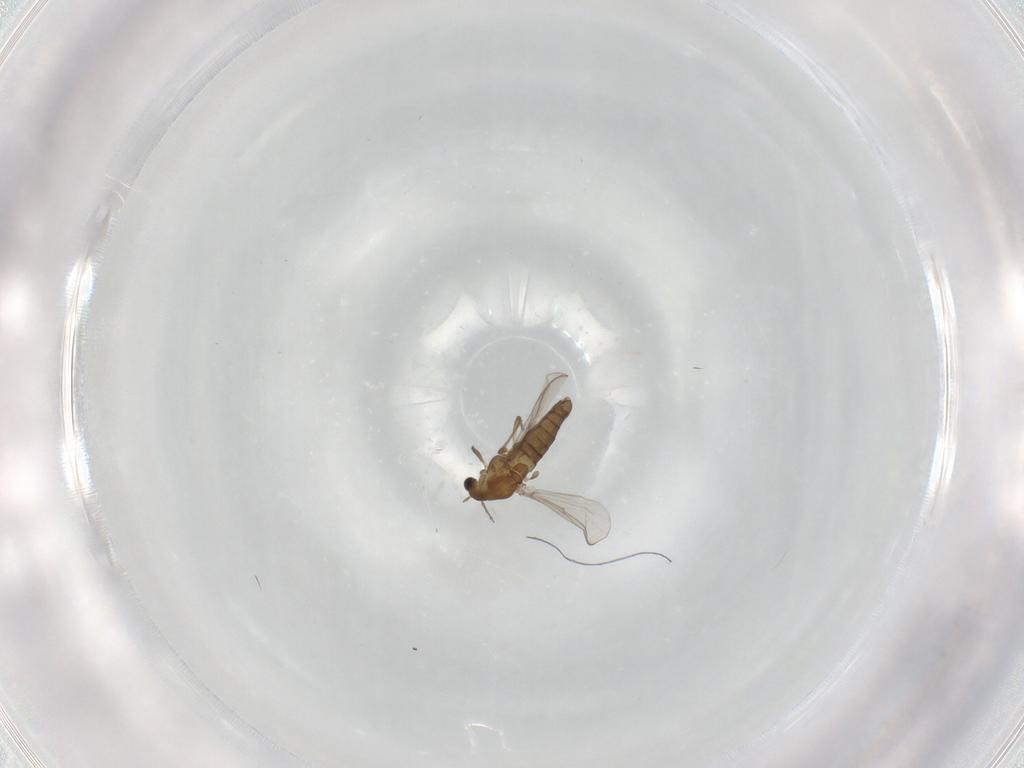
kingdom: Animalia
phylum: Arthropoda
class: Insecta
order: Diptera
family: Chironomidae
